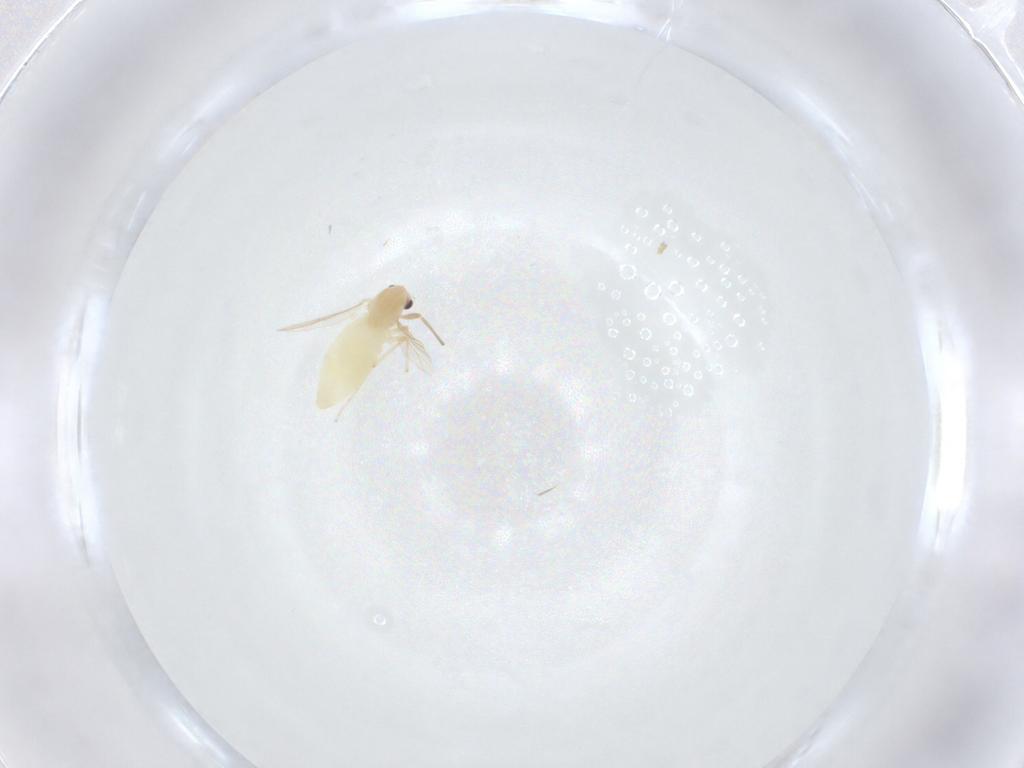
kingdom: Animalia
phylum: Arthropoda
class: Insecta
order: Diptera
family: Chironomidae
